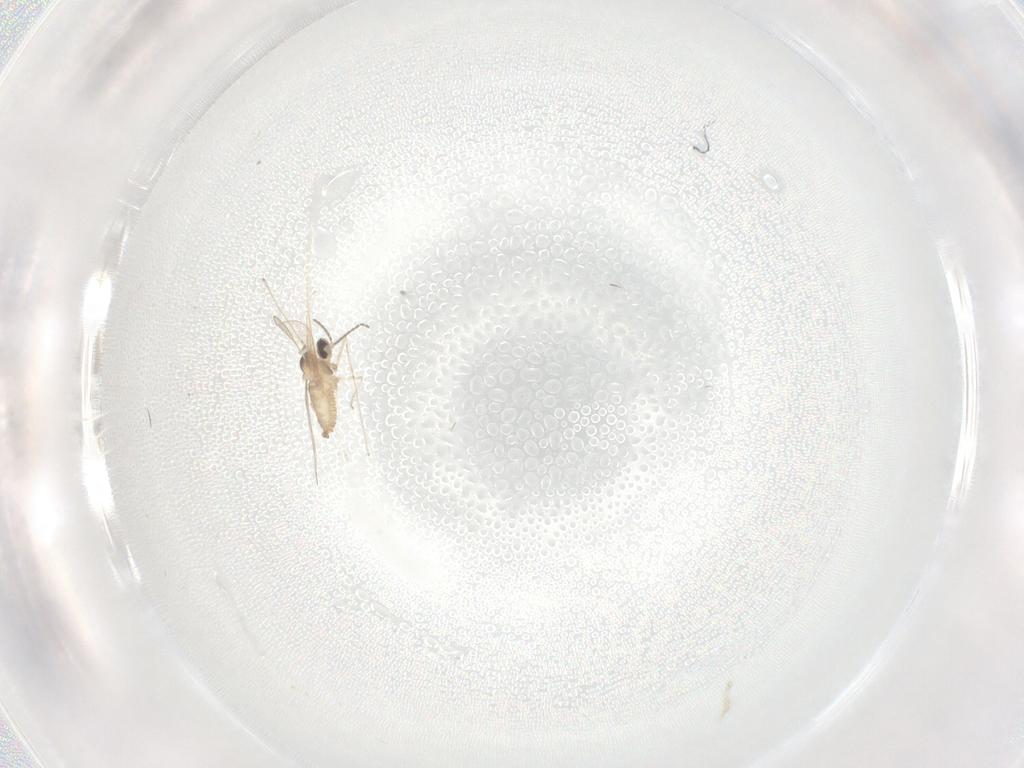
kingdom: Animalia
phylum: Arthropoda
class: Insecta
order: Diptera
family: Cecidomyiidae
